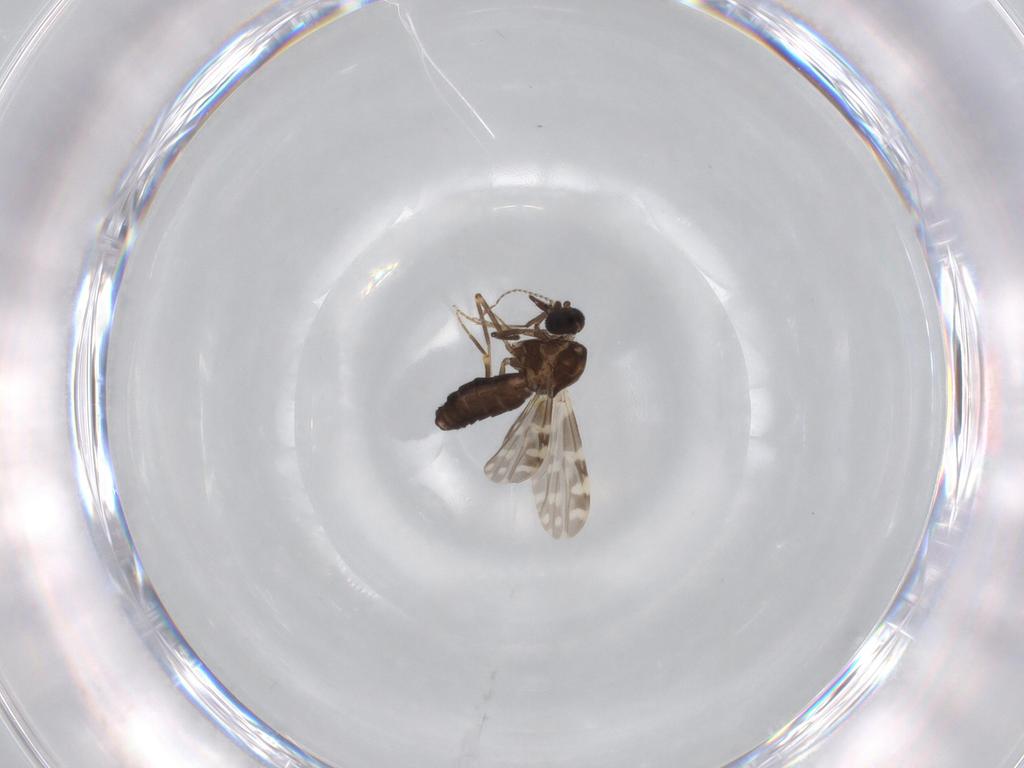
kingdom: Animalia
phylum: Arthropoda
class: Insecta
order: Diptera
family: Ceratopogonidae
